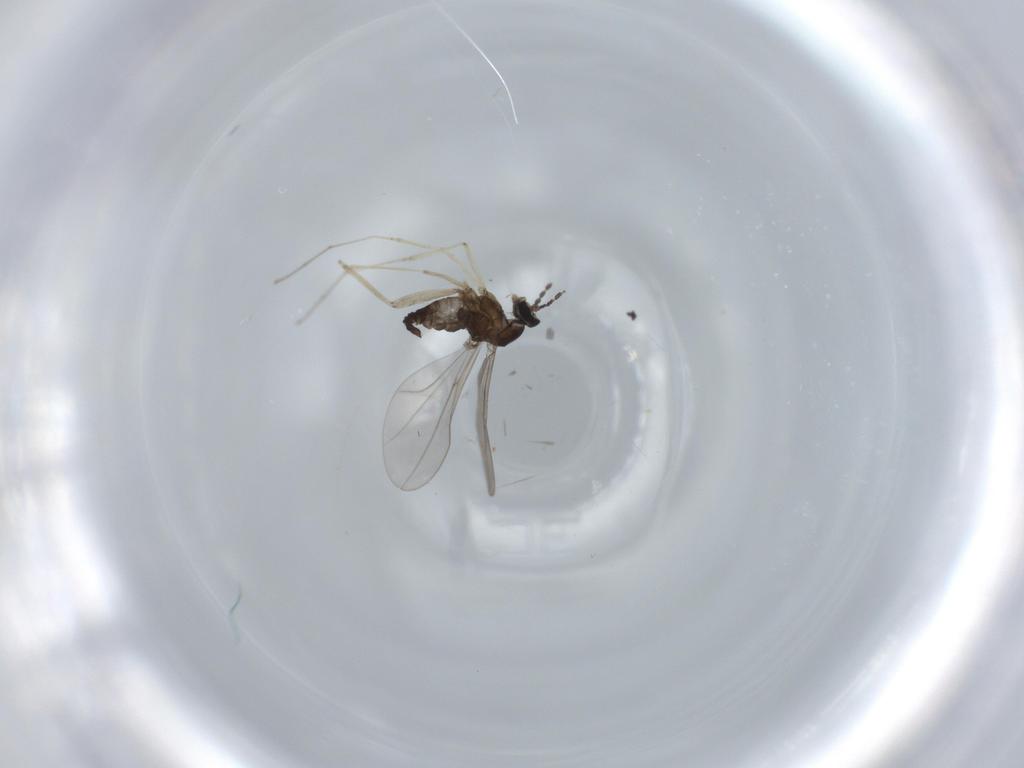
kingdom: Animalia
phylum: Arthropoda
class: Insecta
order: Diptera
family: Cecidomyiidae
